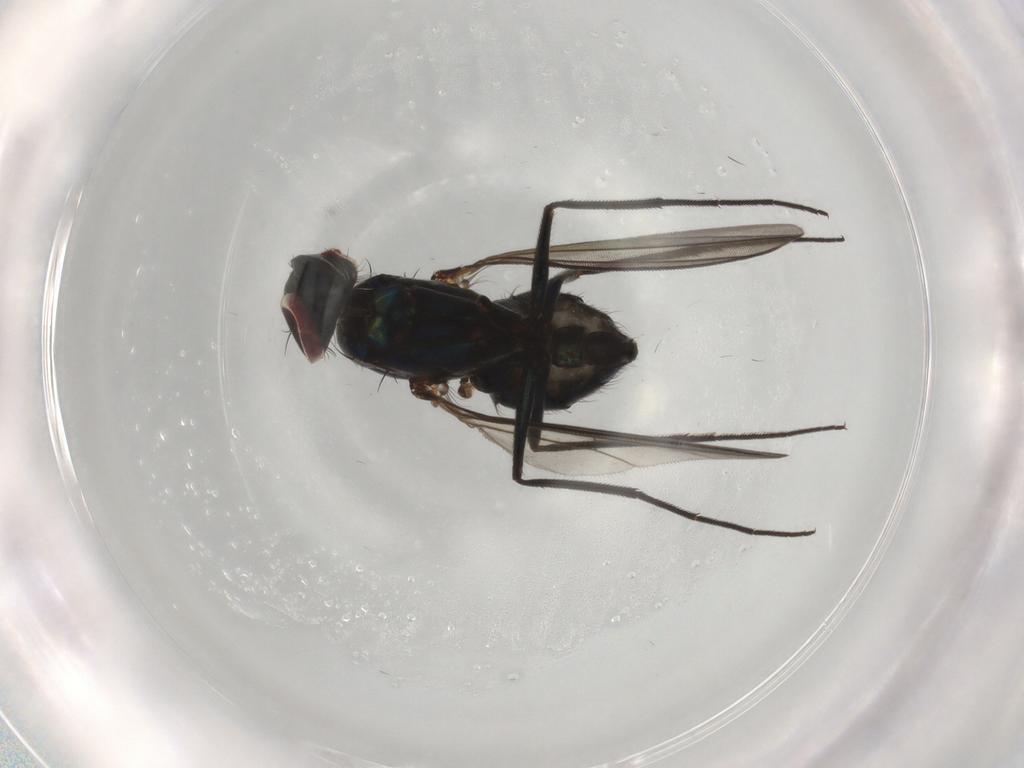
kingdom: Animalia
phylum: Arthropoda
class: Insecta
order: Diptera
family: Dolichopodidae
